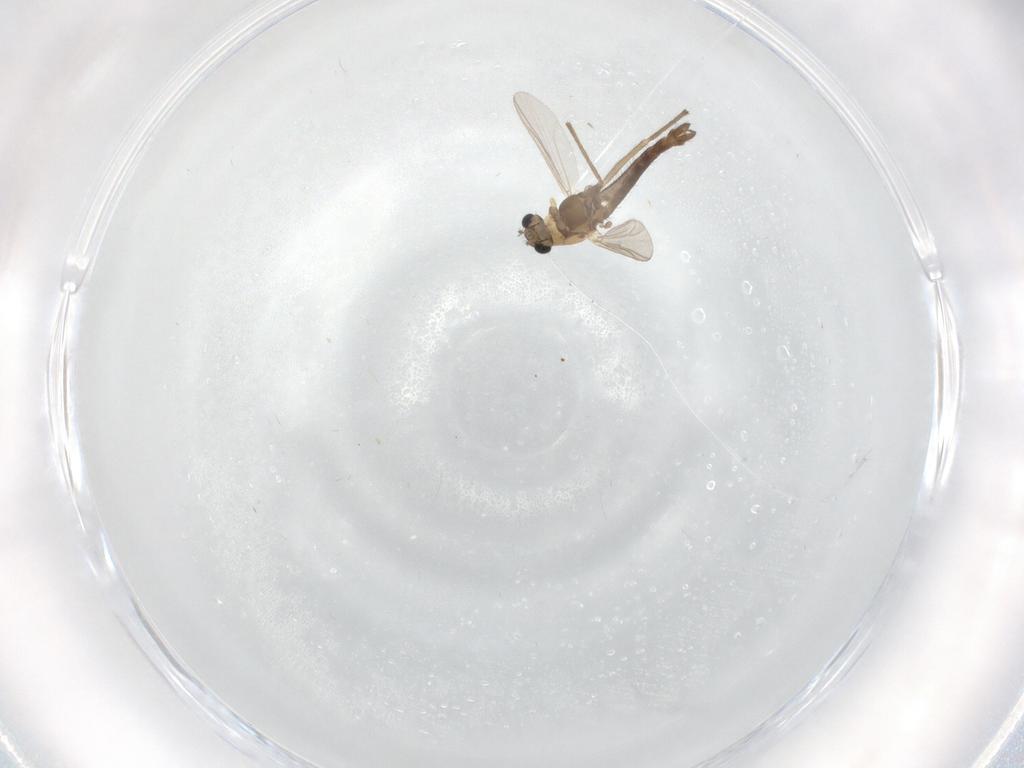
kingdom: Animalia
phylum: Arthropoda
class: Insecta
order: Diptera
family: Chironomidae
